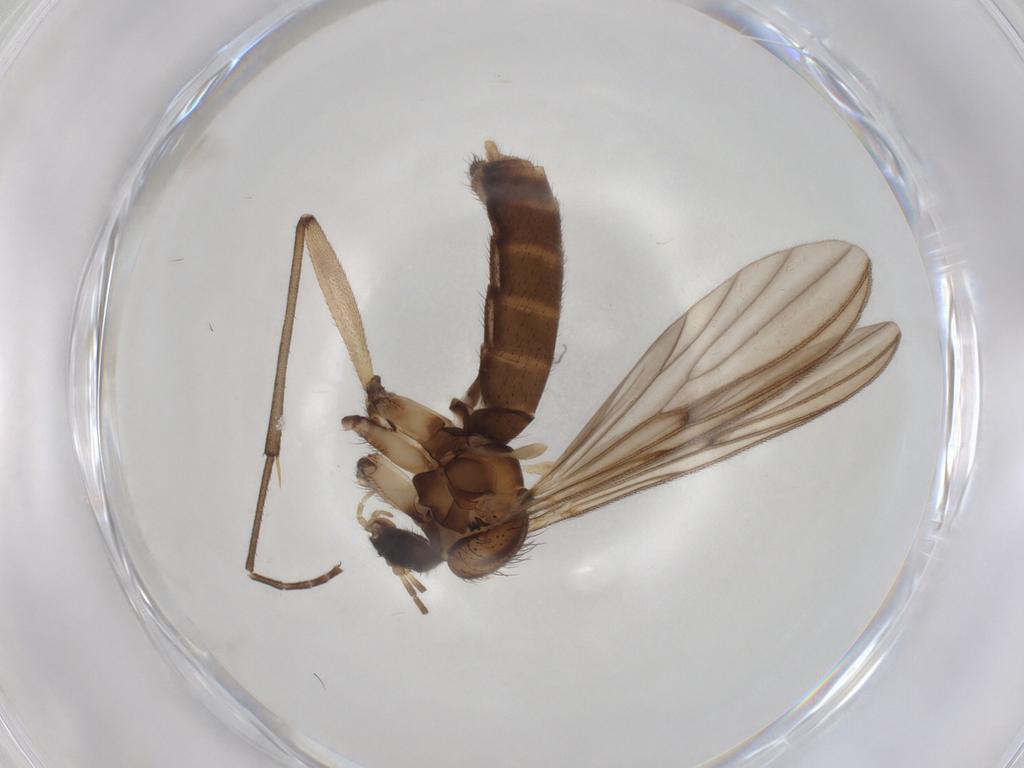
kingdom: Animalia
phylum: Arthropoda
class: Insecta
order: Diptera
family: Mycetophilidae
